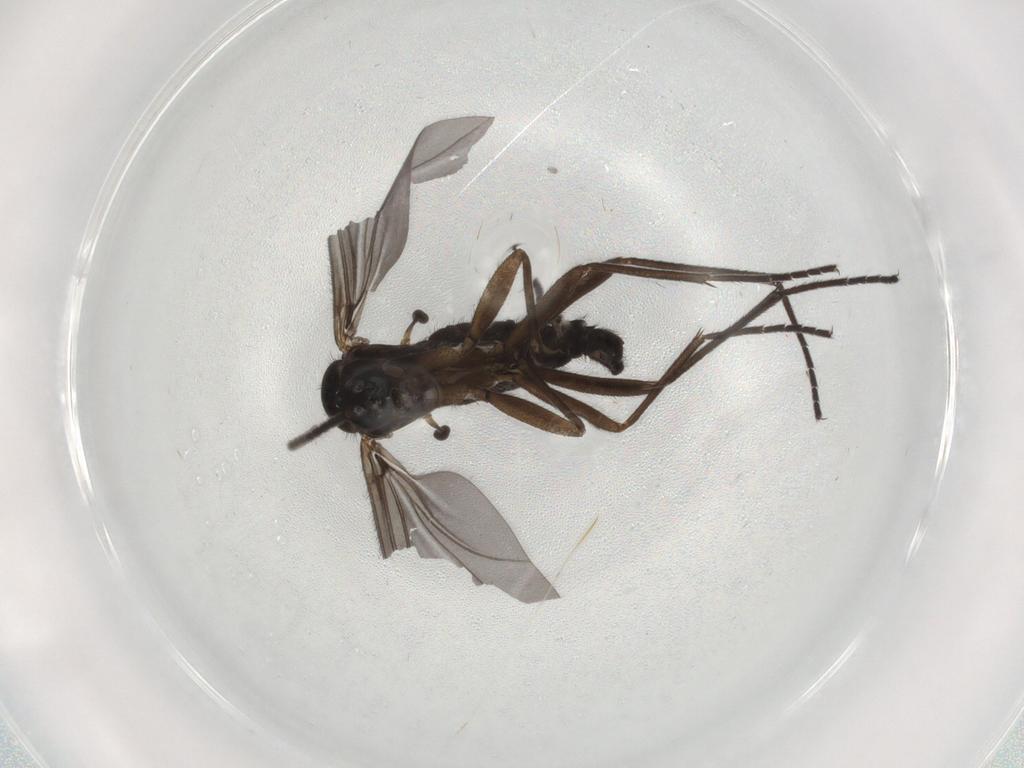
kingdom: Animalia
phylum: Arthropoda
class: Insecta
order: Diptera
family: Sciaridae
